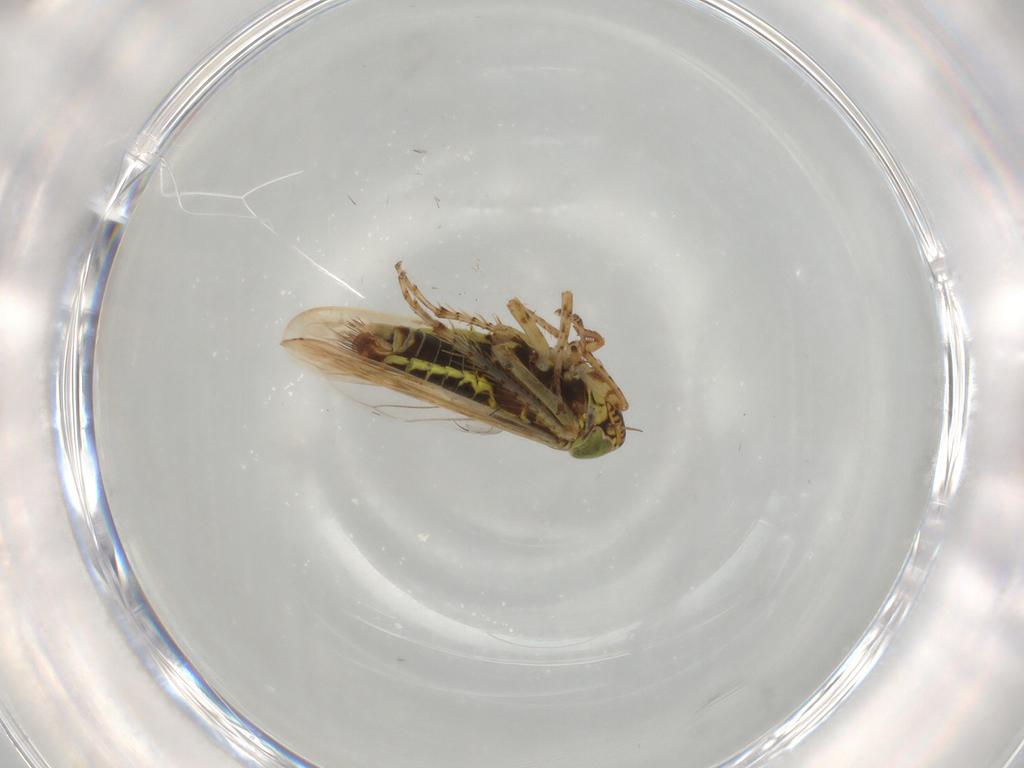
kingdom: Animalia
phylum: Arthropoda
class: Insecta
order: Hemiptera
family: Cicadellidae
